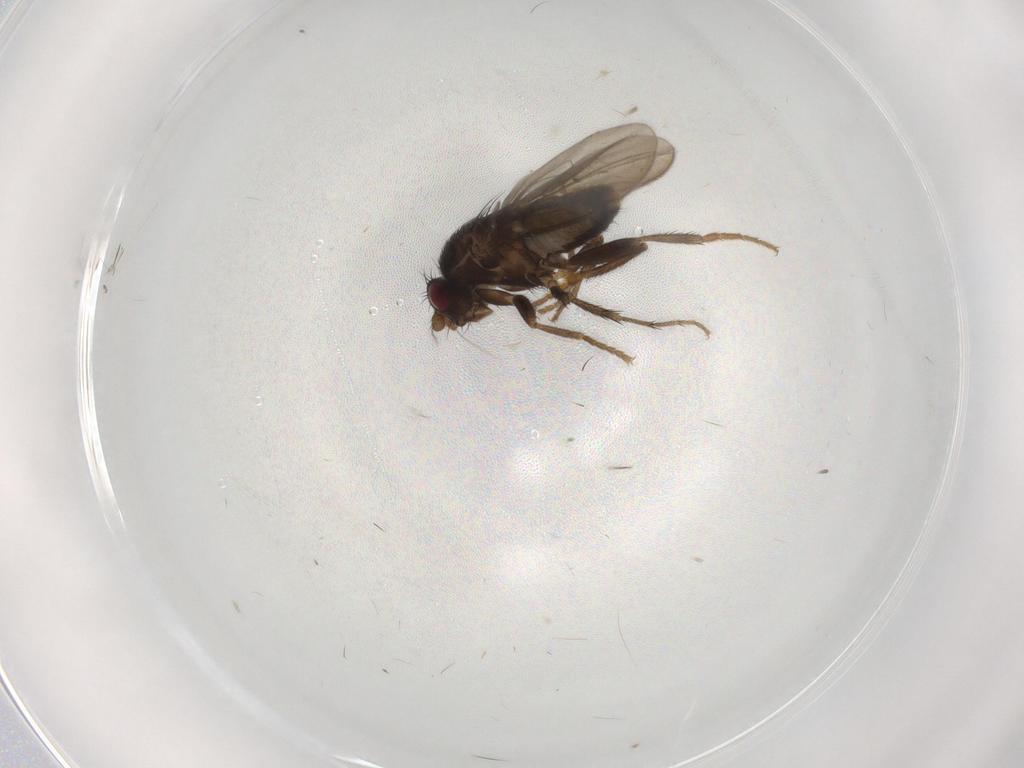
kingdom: Animalia
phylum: Arthropoda
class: Insecta
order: Diptera
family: Sphaeroceridae
